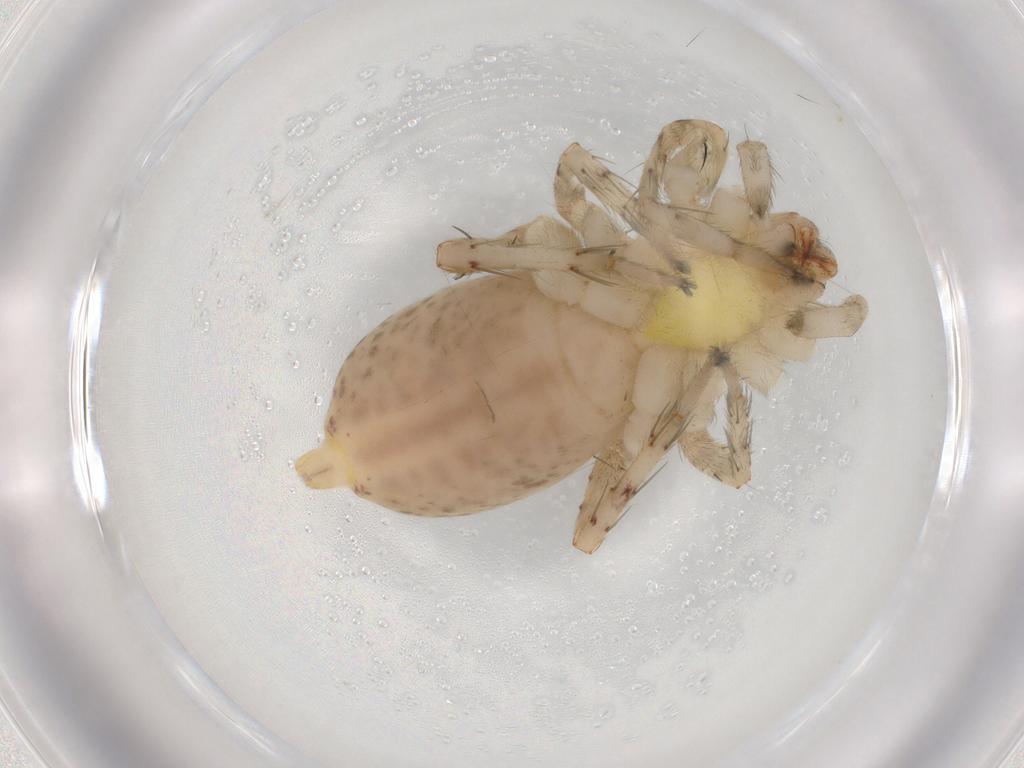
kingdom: Animalia
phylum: Arthropoda
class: Arachnida
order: Araneae
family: Anyphaenidae
